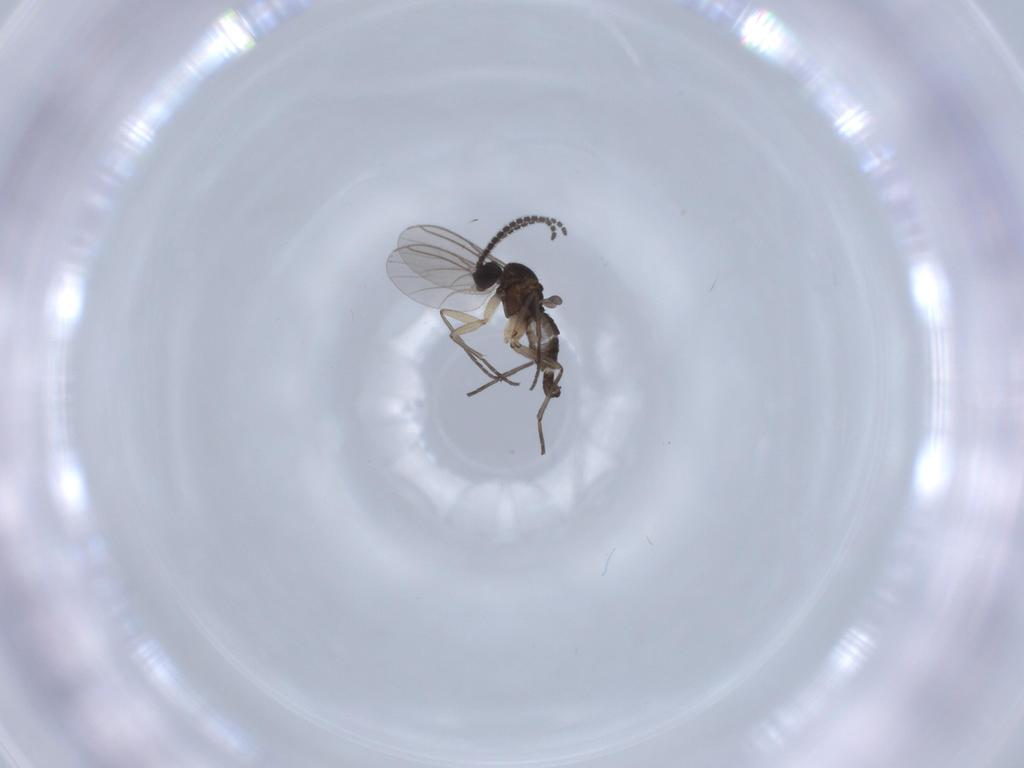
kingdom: Animalia
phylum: Arthropoda
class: Insecta
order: Diptera
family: Sciaridae
